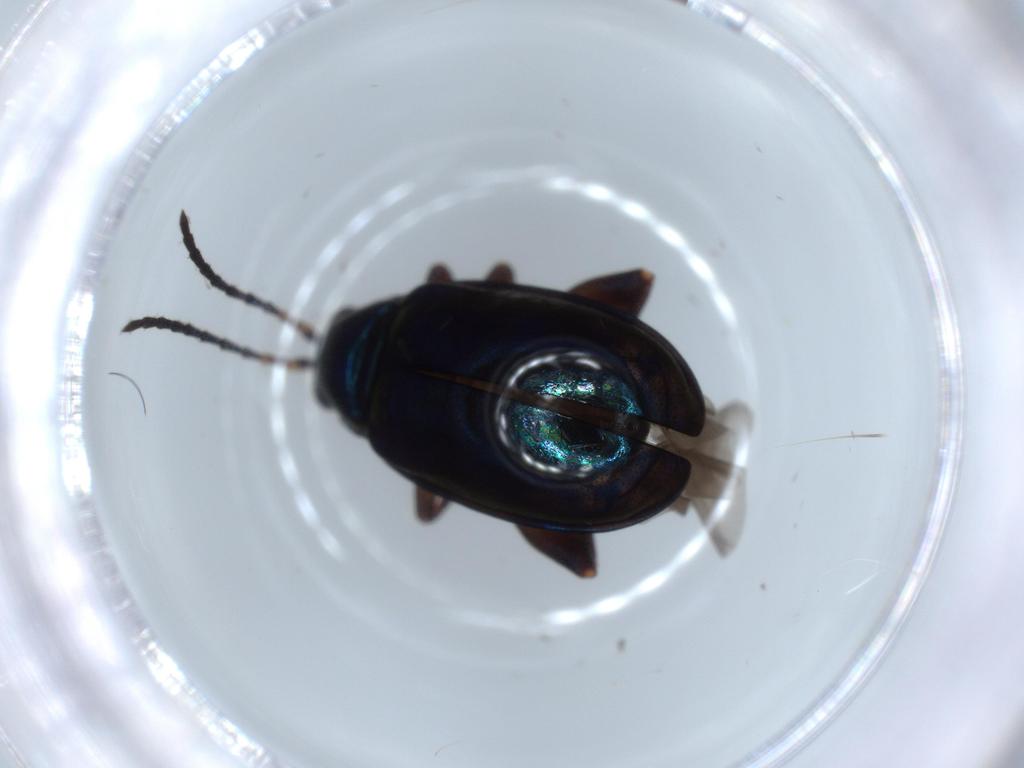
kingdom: Animalia
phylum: Arthropoda
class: Insecta
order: Coleoptera
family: Chrysomelidae
